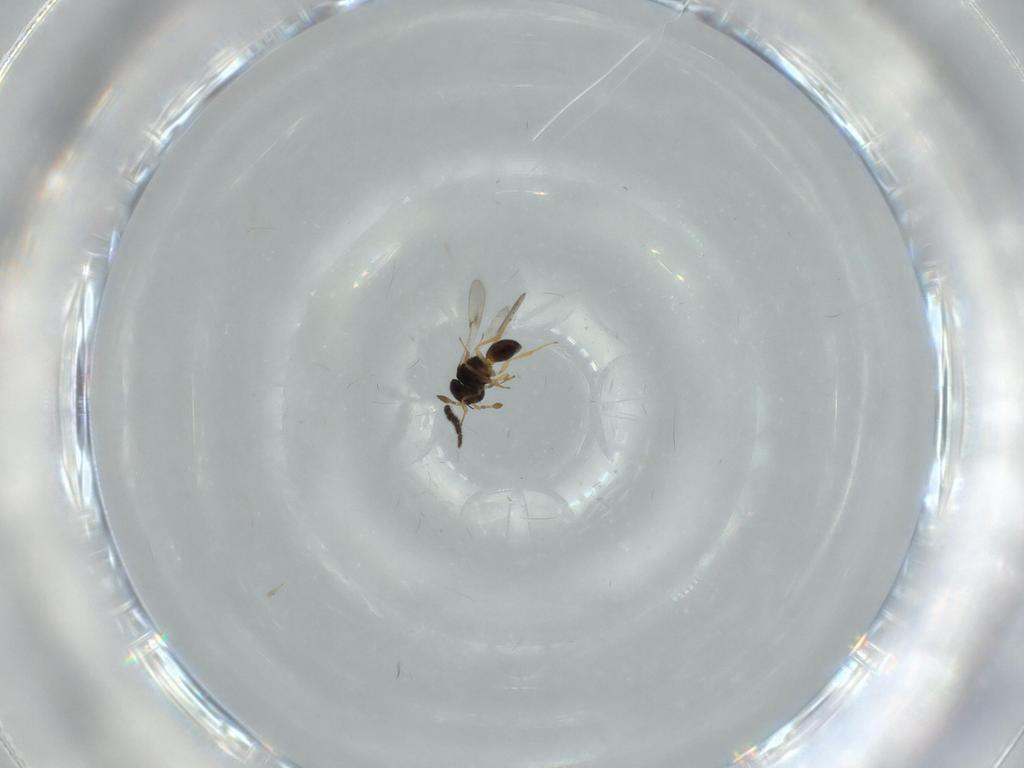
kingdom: Animalia
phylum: Arthropoda
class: Insecta
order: Hymenoptera
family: Scelionidae
